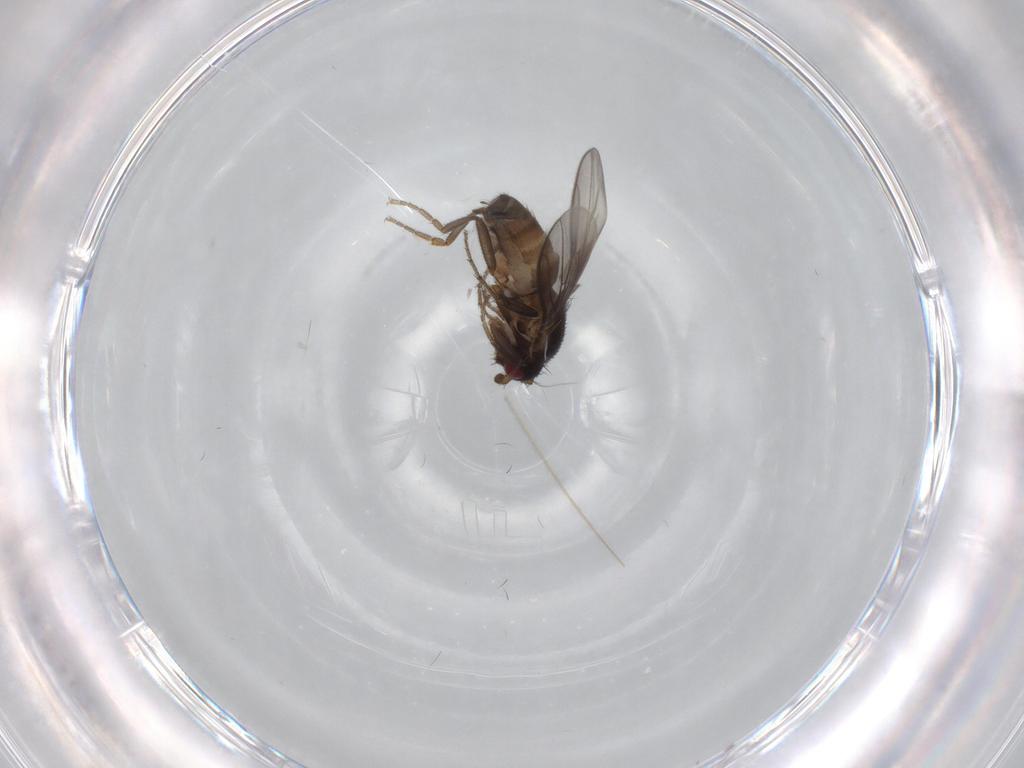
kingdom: Animalia
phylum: Arthropoda
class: Insecta
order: Diptera
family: Sphaeroceridae
